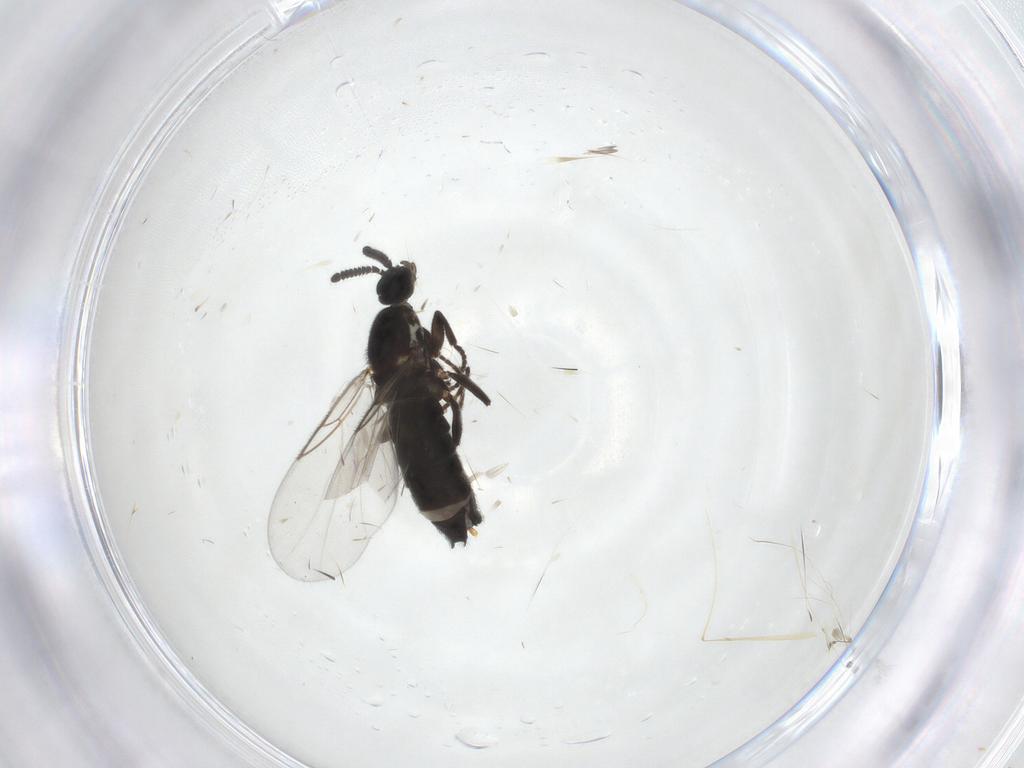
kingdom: Animalia
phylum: Arthropoda
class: Insecta
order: Diptera
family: Scatopsidae
